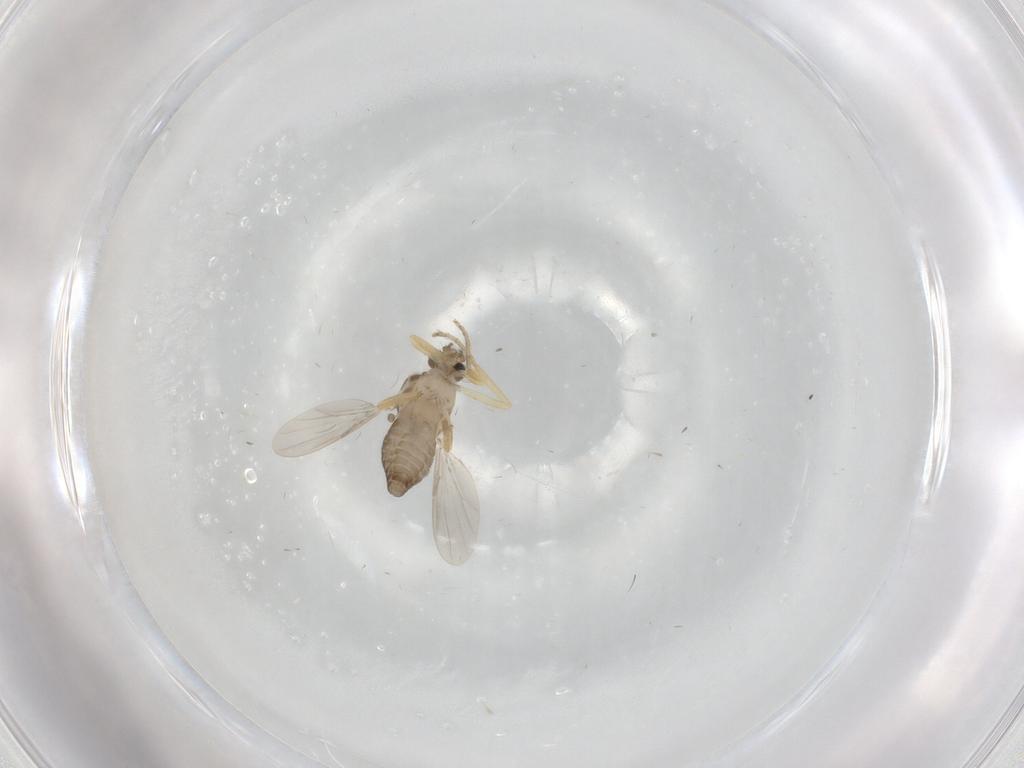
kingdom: Animalia
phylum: Arthropoda
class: Insecta
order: Diptera
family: Ceratopogonidae
